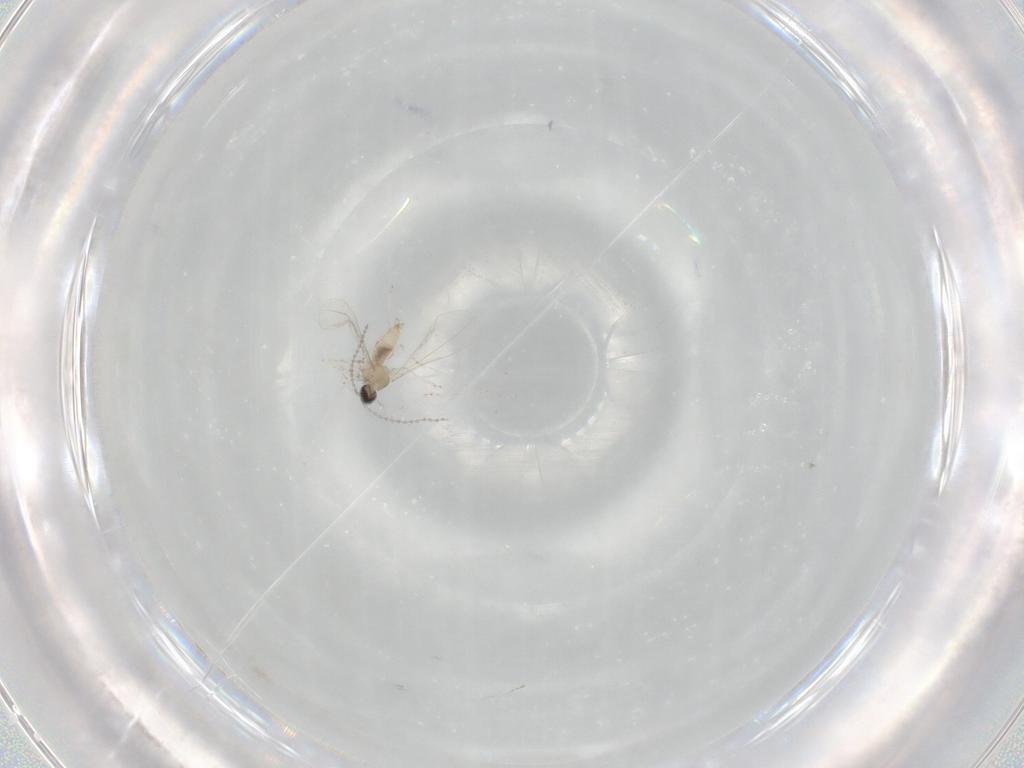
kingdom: Animalia
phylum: Arthropoda
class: Insecta
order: Diptera
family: Cecidomyiidae
